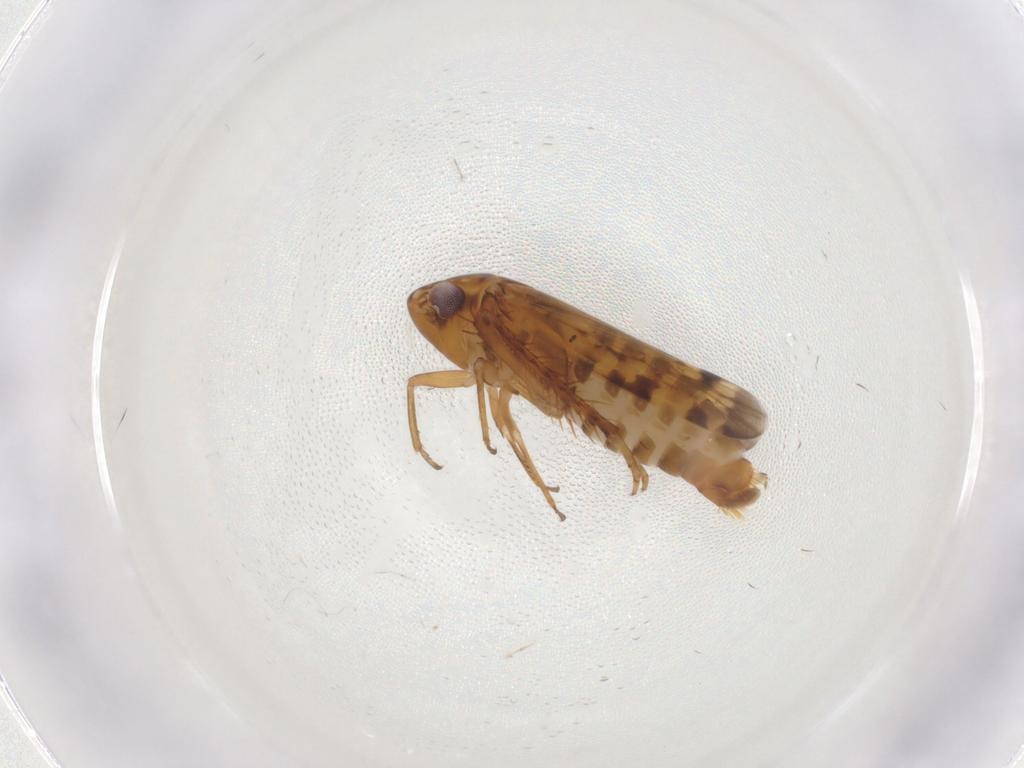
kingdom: Animalia
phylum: Arthropoda
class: Insecta
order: Hemiptera
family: Cicadellidae
